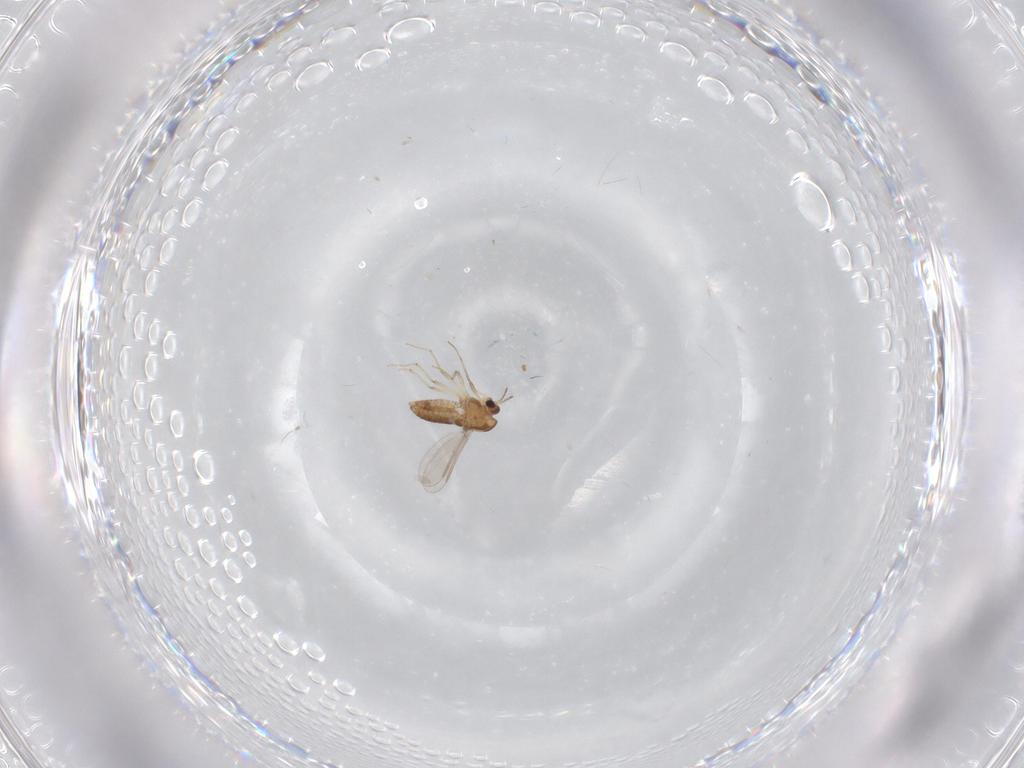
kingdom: Animalia
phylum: Arthropoda
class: Insecta
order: Diptera
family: Chironomidae
